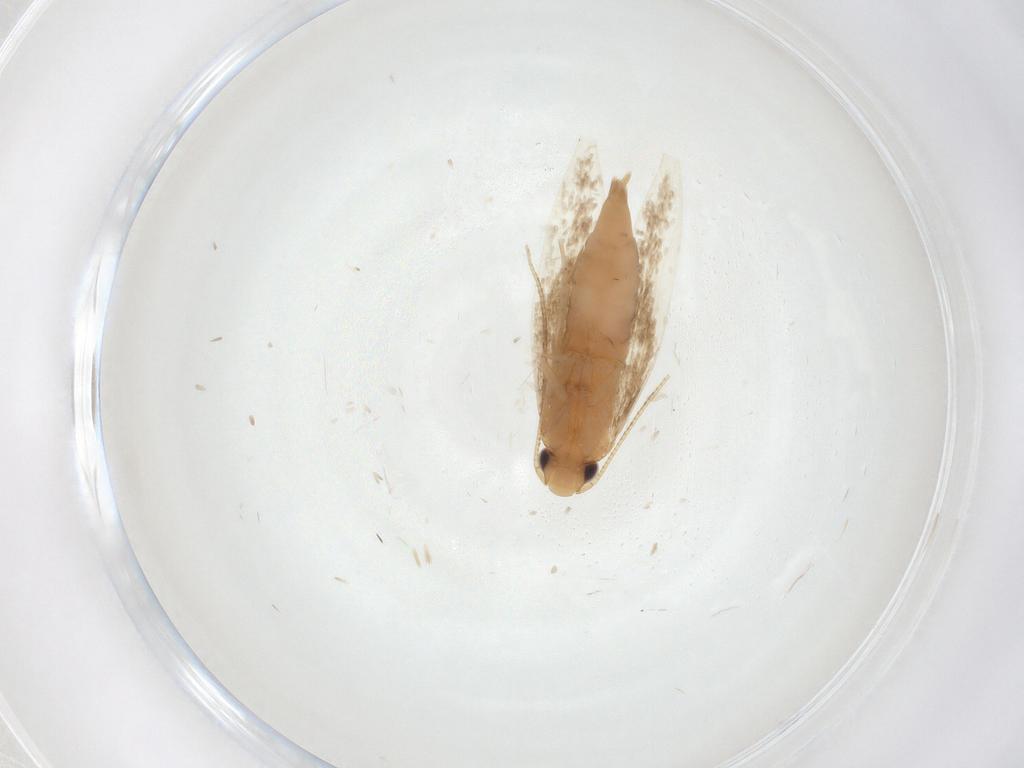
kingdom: Animalia
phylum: Arthropoda
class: Insecta
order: Lepidoptera
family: Tineidae
